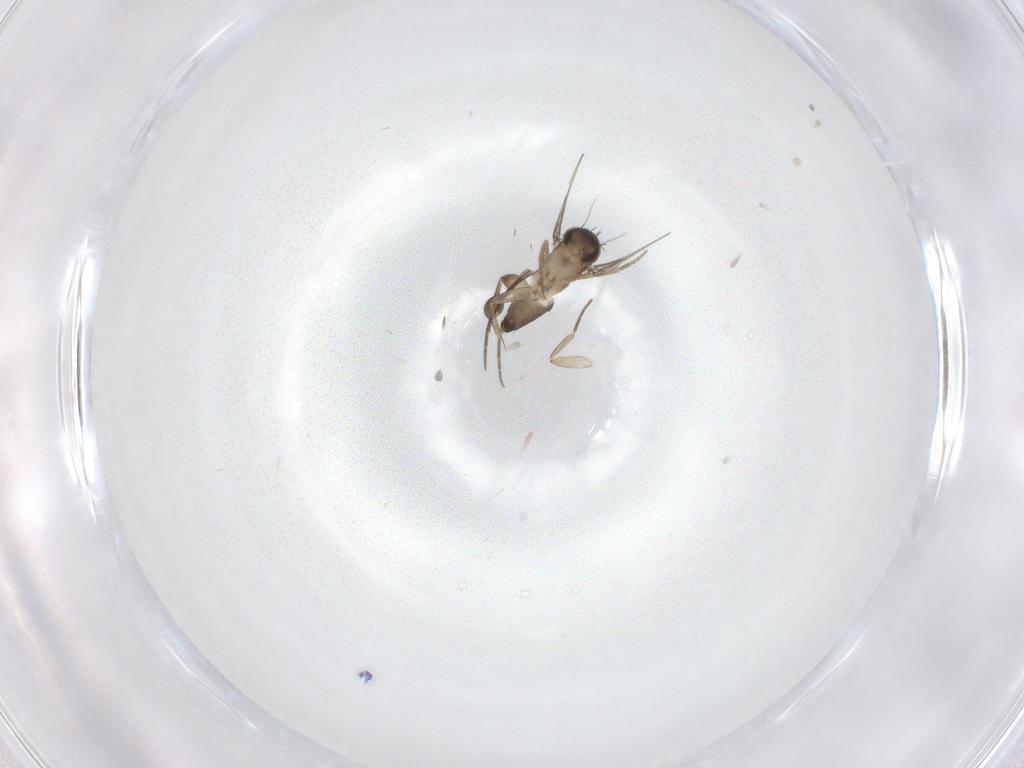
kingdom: Animalia
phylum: Arthropoda
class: Insecta
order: Diptera
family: Phoridae
